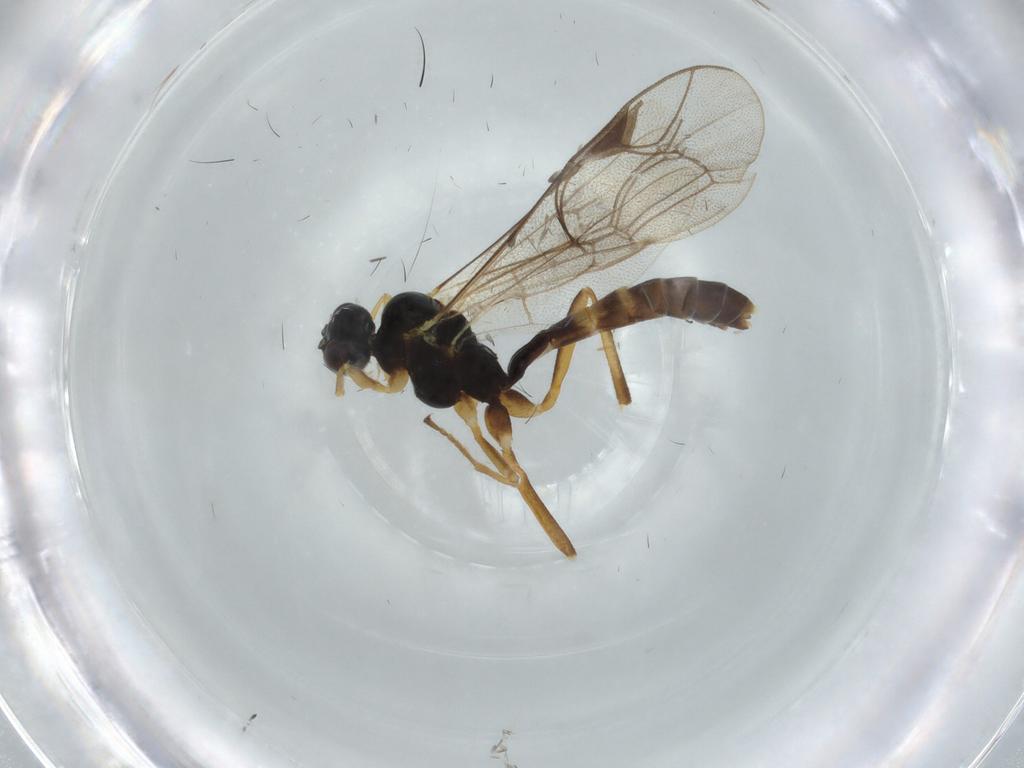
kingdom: Animalia
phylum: Arthropoda
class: Insecta
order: Hymenoptera
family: Ichneumonidae
